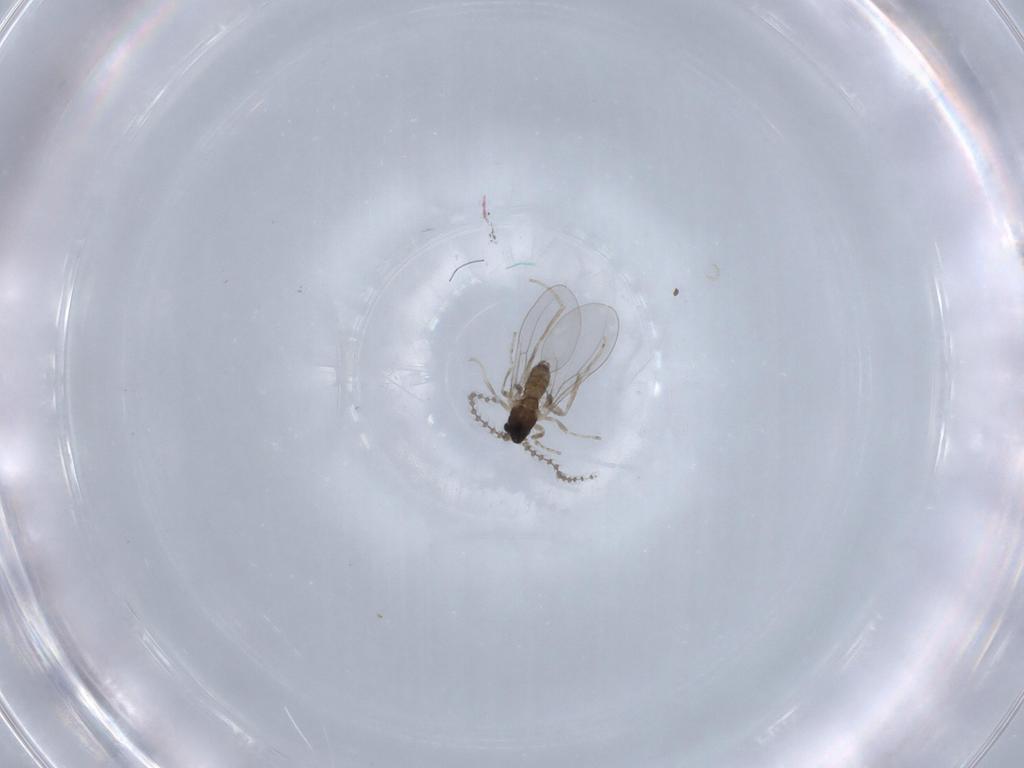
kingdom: Animalia
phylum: Arthropoda
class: Insecta
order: Diptera
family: Cecidomyiidae
